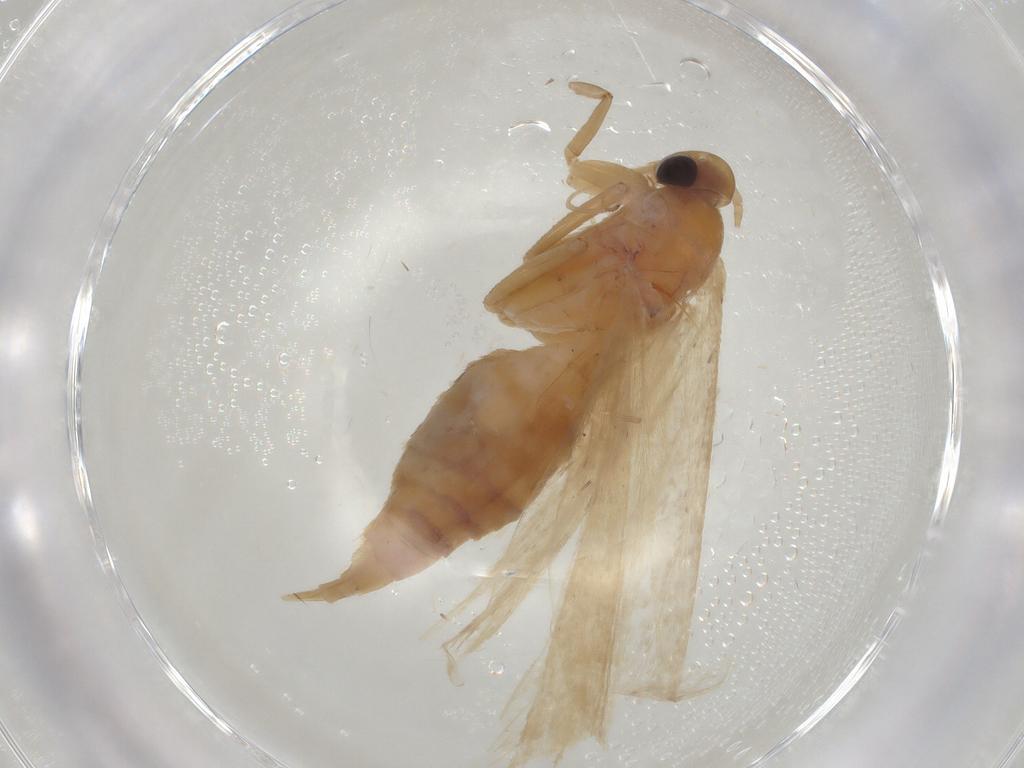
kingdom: Animalia
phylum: Arthropoda
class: Insecta
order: Lepidoptera
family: Depressariidae
